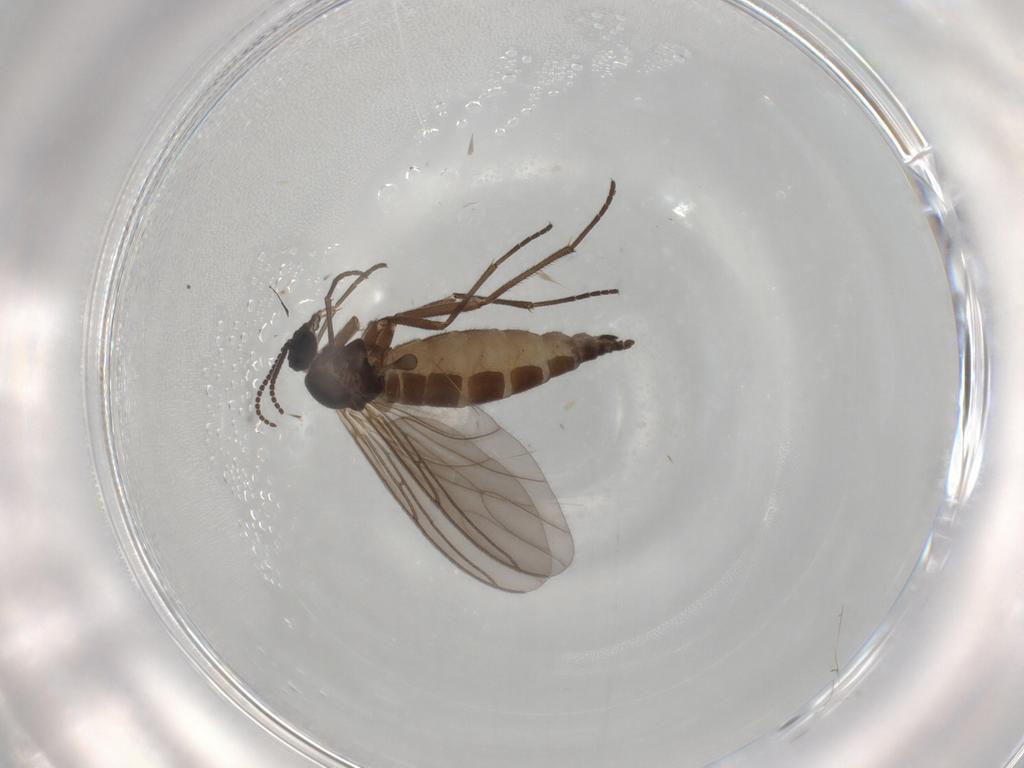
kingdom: Animalia
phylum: Arthropoda
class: Insecta
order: Diptera
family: Sciaridae
